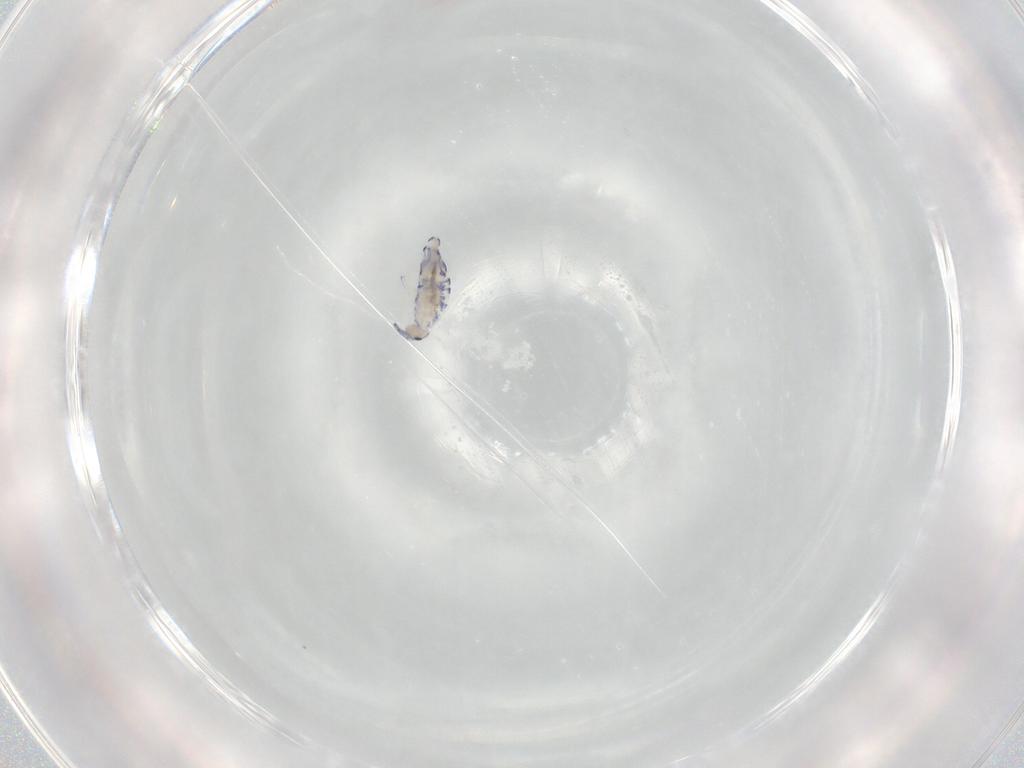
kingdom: Animalia
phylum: Arthropoda
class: Collembola
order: Entomobryomorpha
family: Entomobryidae
